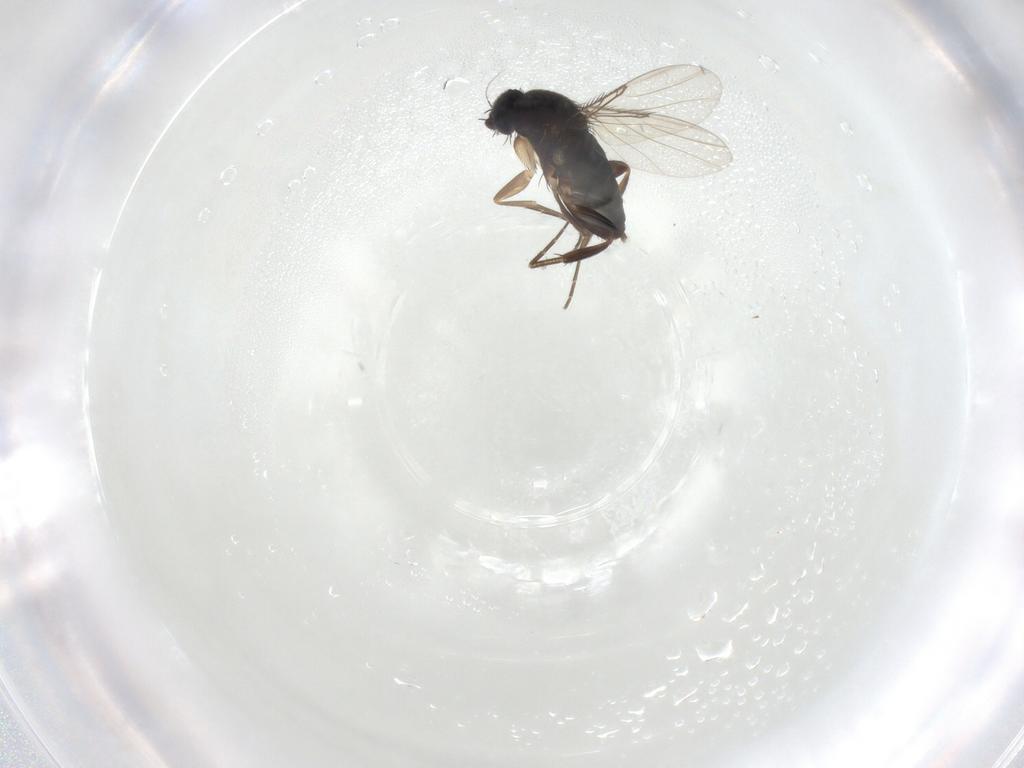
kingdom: Animalia
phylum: Arthropoda
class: Insecta
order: Diptera
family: Phoridae
